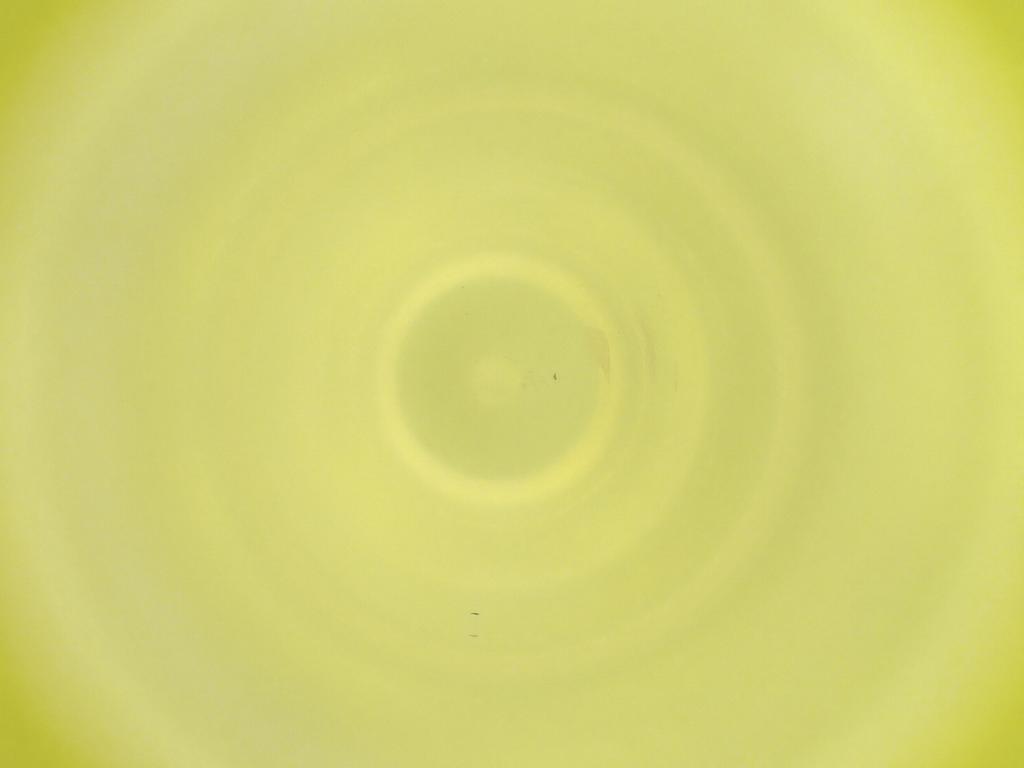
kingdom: Animalia
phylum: Arthropoda
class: Insecta
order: Diptera
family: Cecidomyiidae
